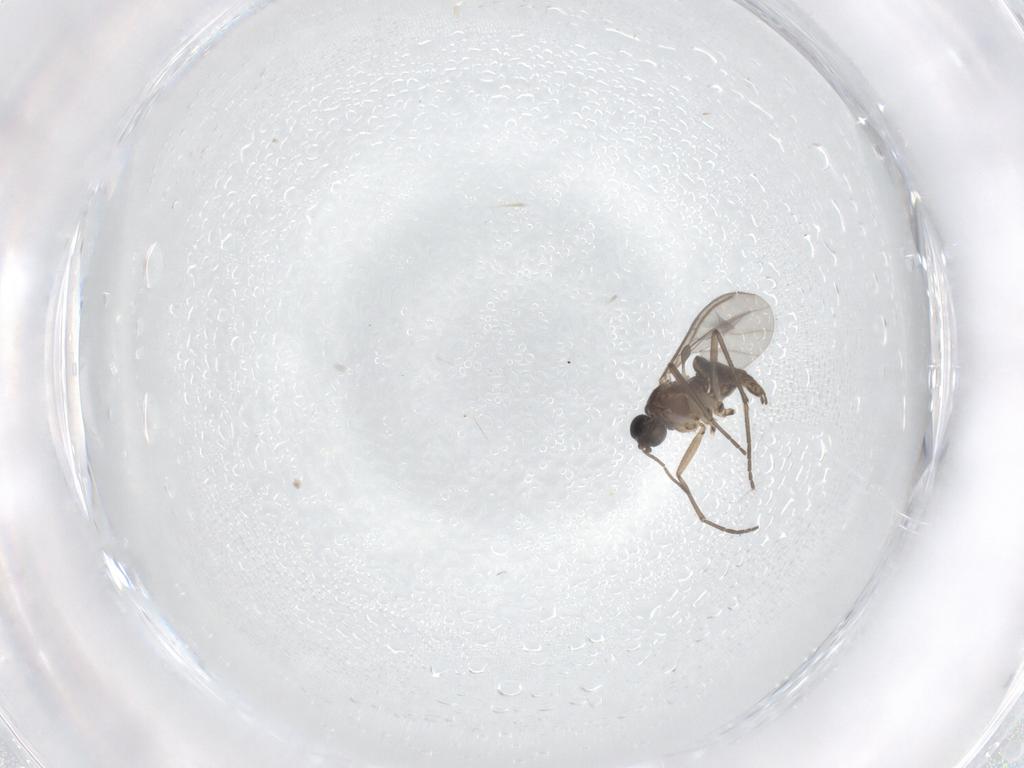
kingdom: Animalia
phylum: Arthropoda
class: Insecta
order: Diptera
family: Sciaridae
